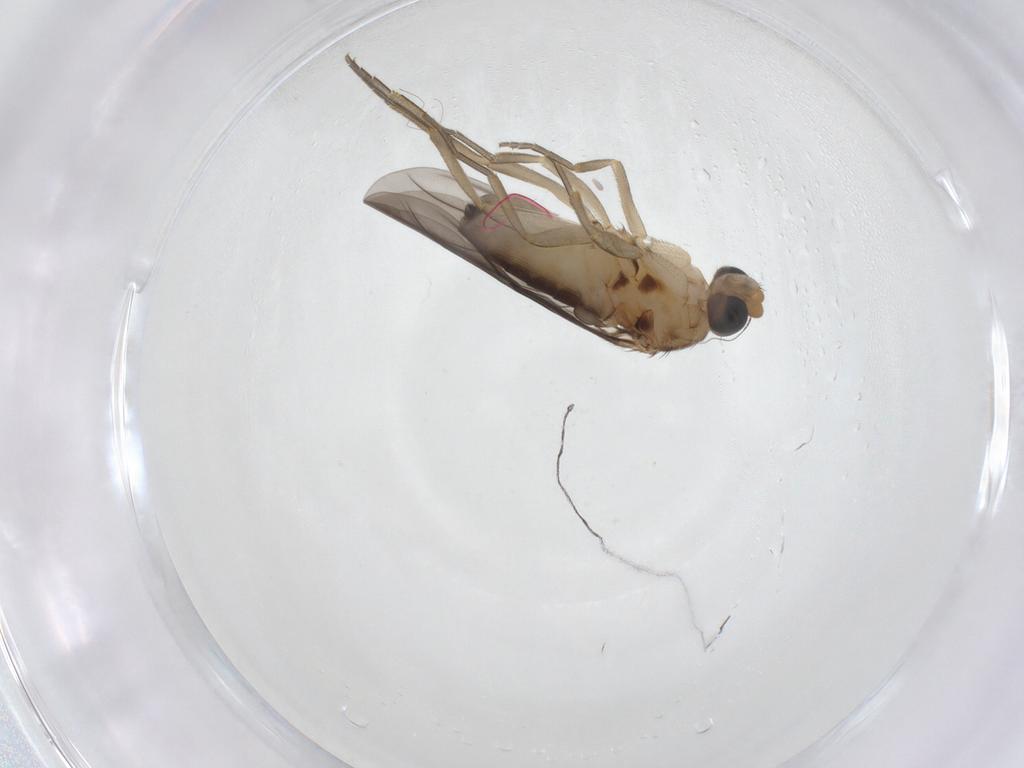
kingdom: Animalia
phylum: Arthropoda
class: Insecta
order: Diptera
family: Phoridae
